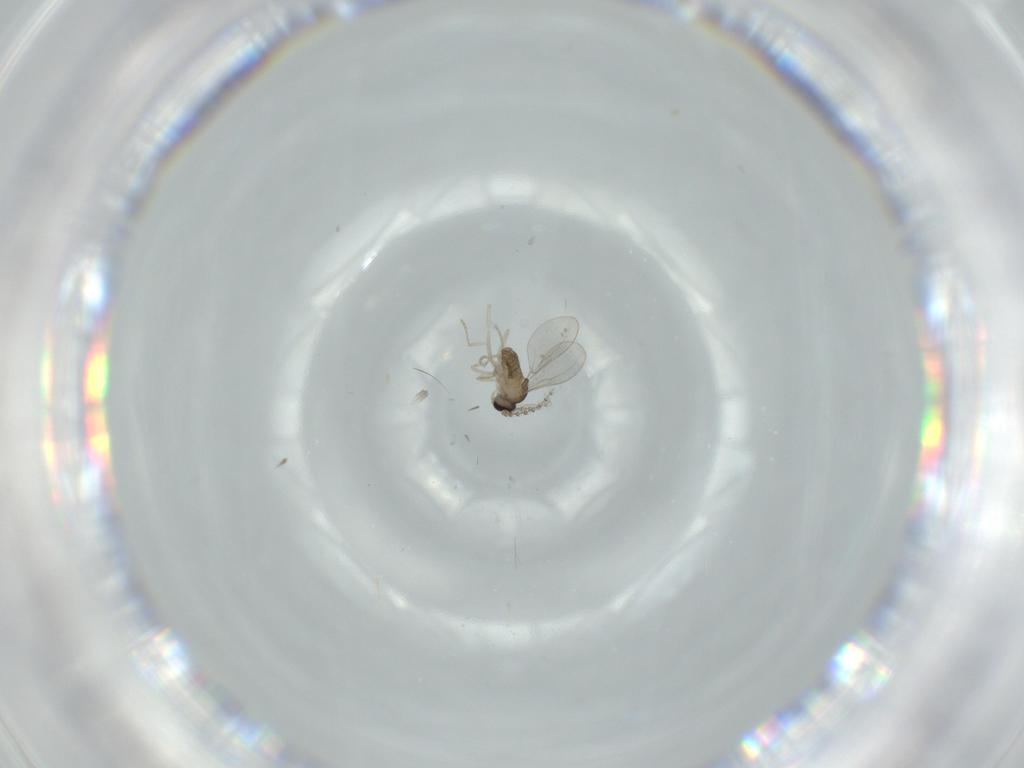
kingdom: Animalia
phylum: Arthropoda
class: Insecta
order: Diptera
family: Drosophilidae
